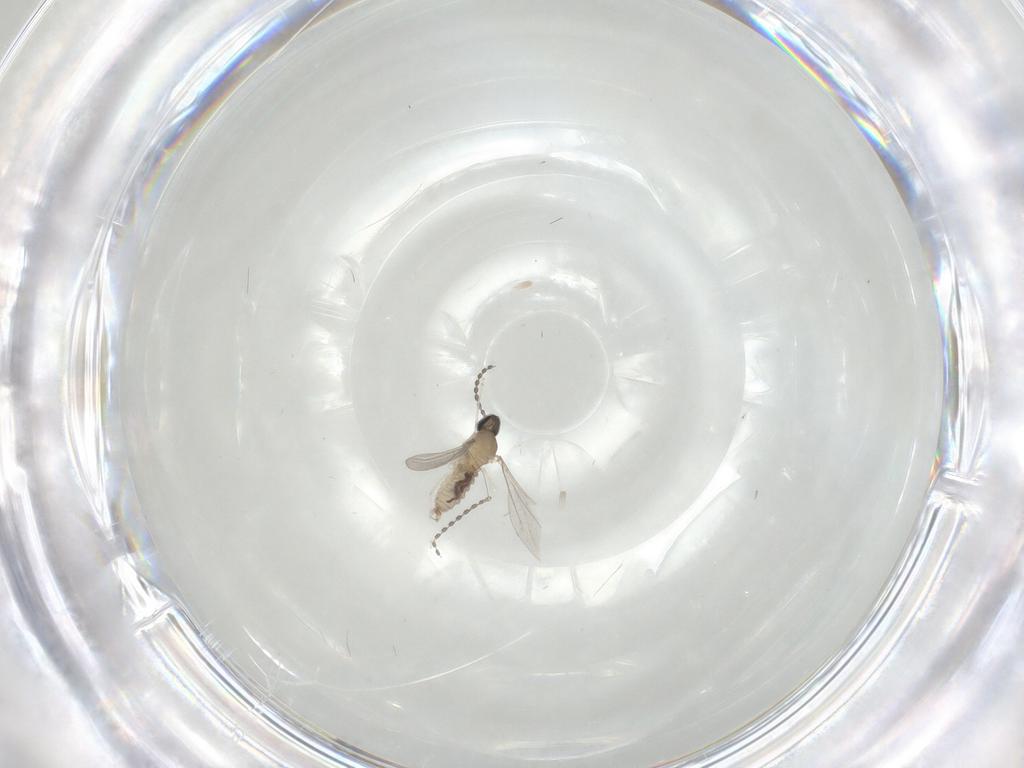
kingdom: Animalia
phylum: Arthropoda
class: Insecta
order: Diptera
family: Cecidomyiidae
